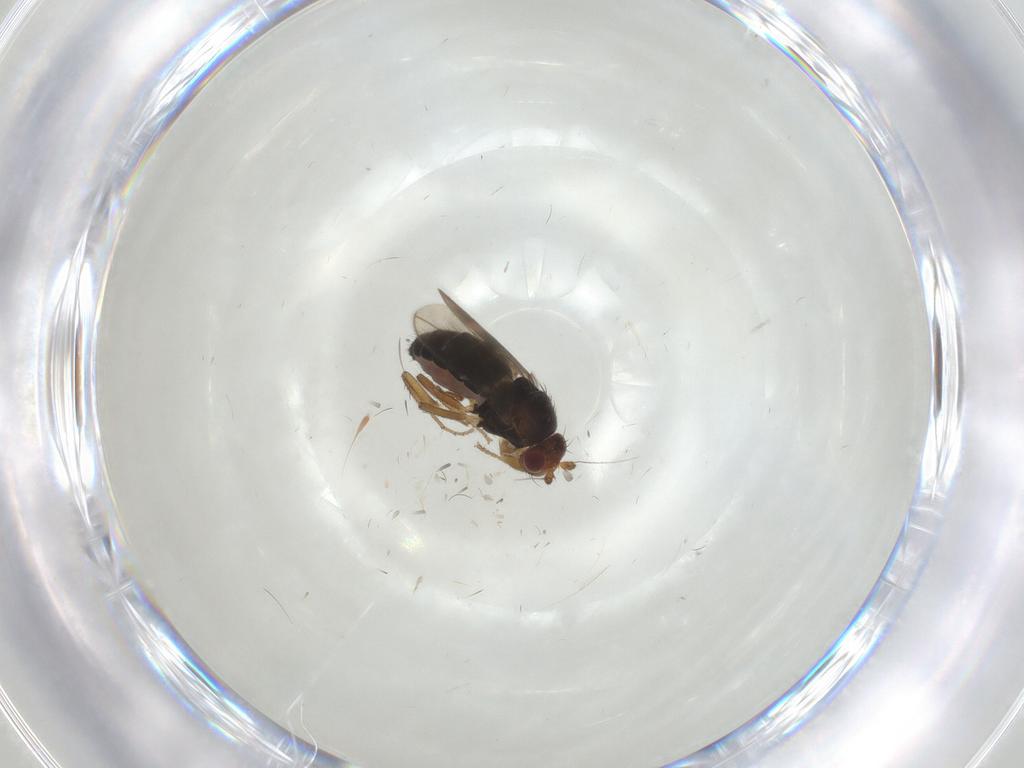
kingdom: Animalia
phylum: Arthropoda
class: Insecta
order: Diptera
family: Sphaeroceridae
